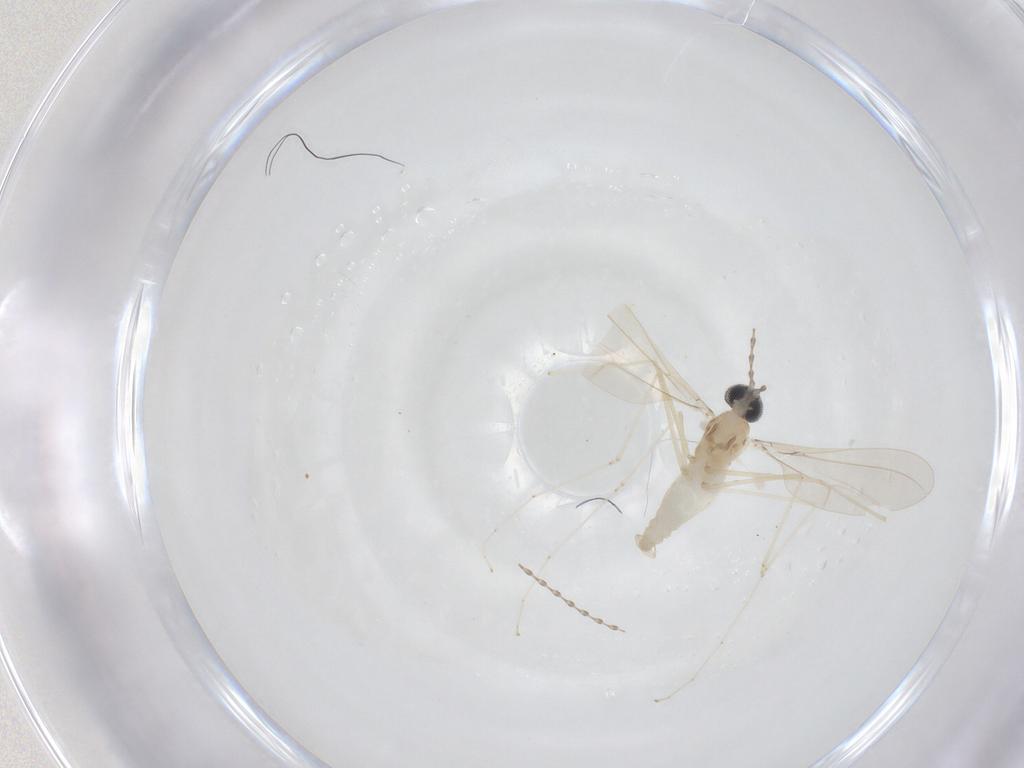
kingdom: Animalia
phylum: Arthropoda
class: Insecta
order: Diptera
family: Cecidomyiidae
